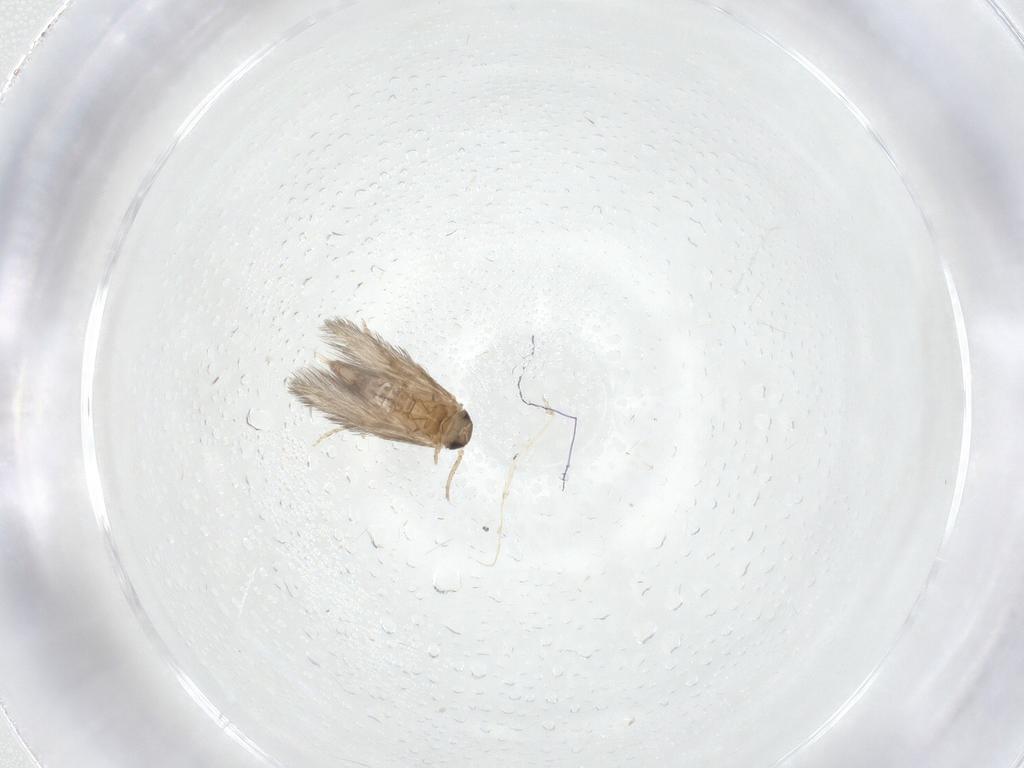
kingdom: Animalia
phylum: Arthropoda
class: Insecta
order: Lepidoptera
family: Lecithoceridae
